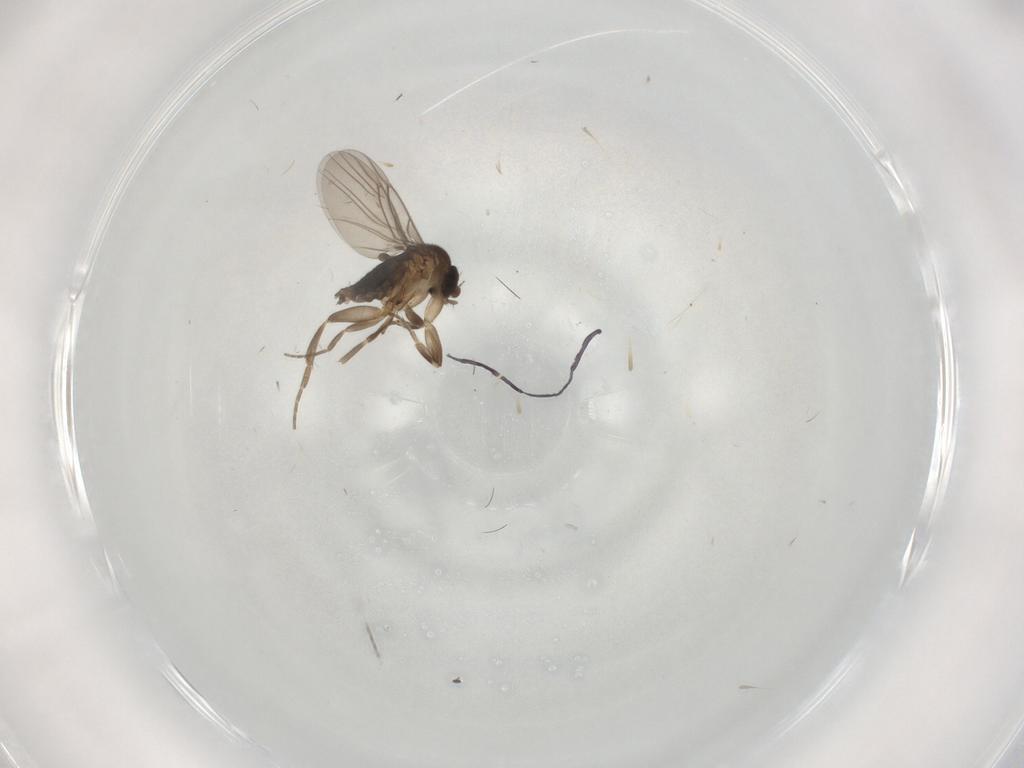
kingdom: Animalia
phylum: Arthropoda
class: Insecta
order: Diptera
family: Phoridae
